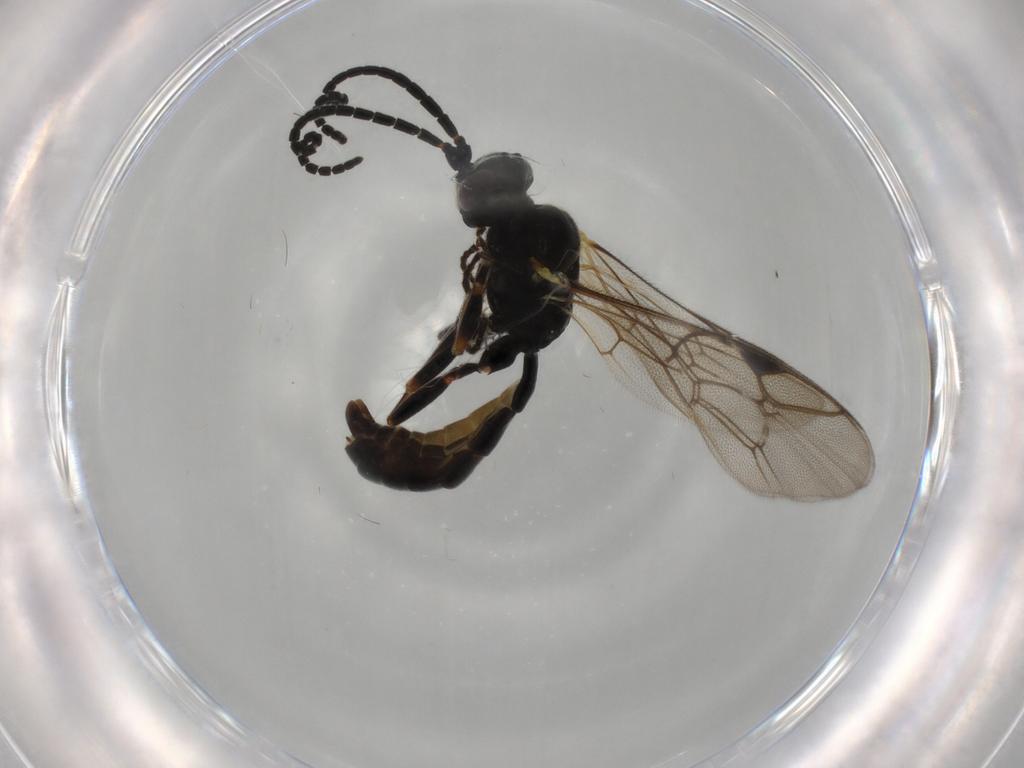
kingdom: Animalia
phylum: Arthropoda
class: Insecta
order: Hymenoptera
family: Ichneumonidae
